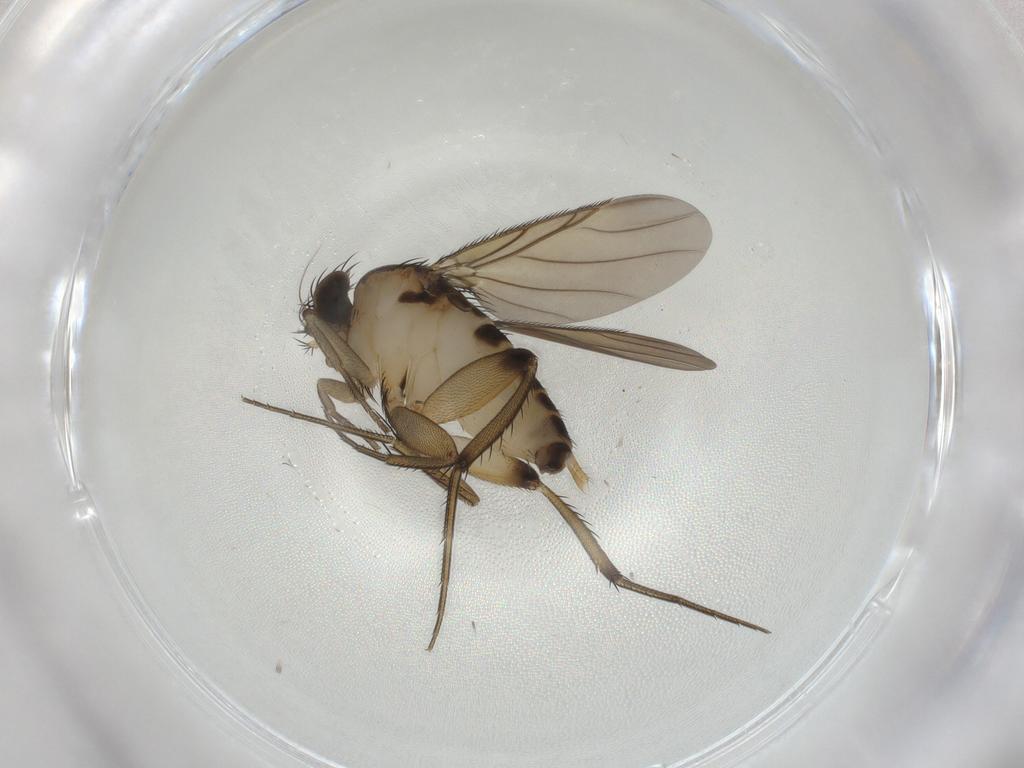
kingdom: Animalia
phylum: Arthropoda
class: Insecta
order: Diptera
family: Phoridae
